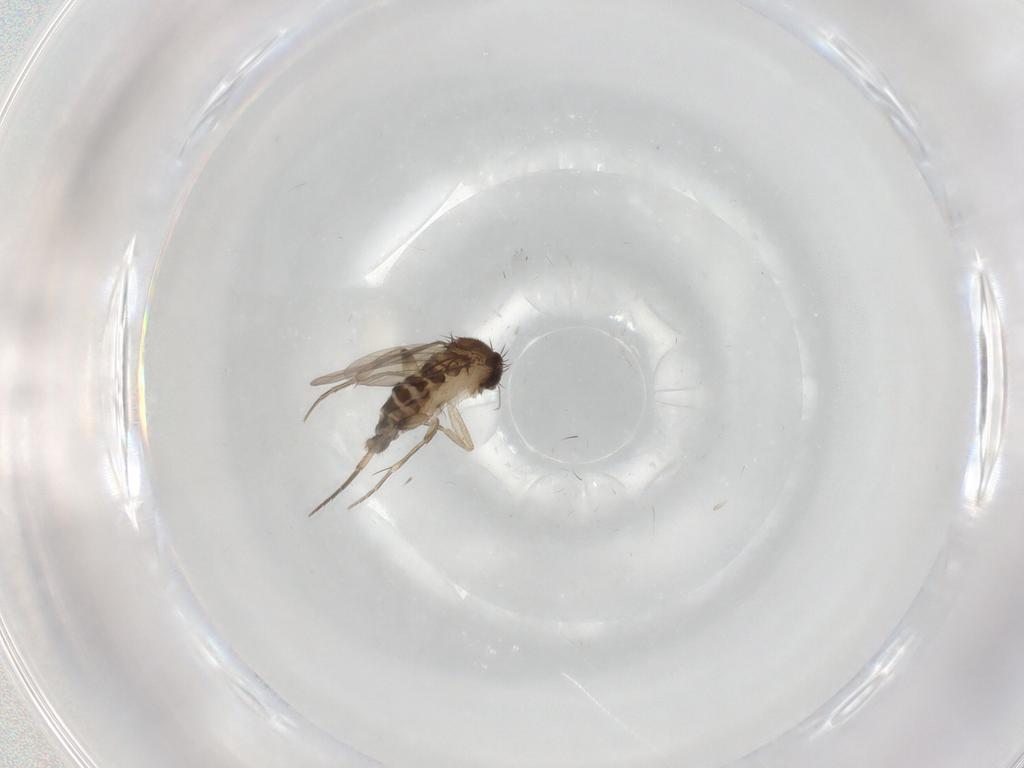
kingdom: Animalia
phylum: Arthropoda
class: Insecta
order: Diptera
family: Phoridae
